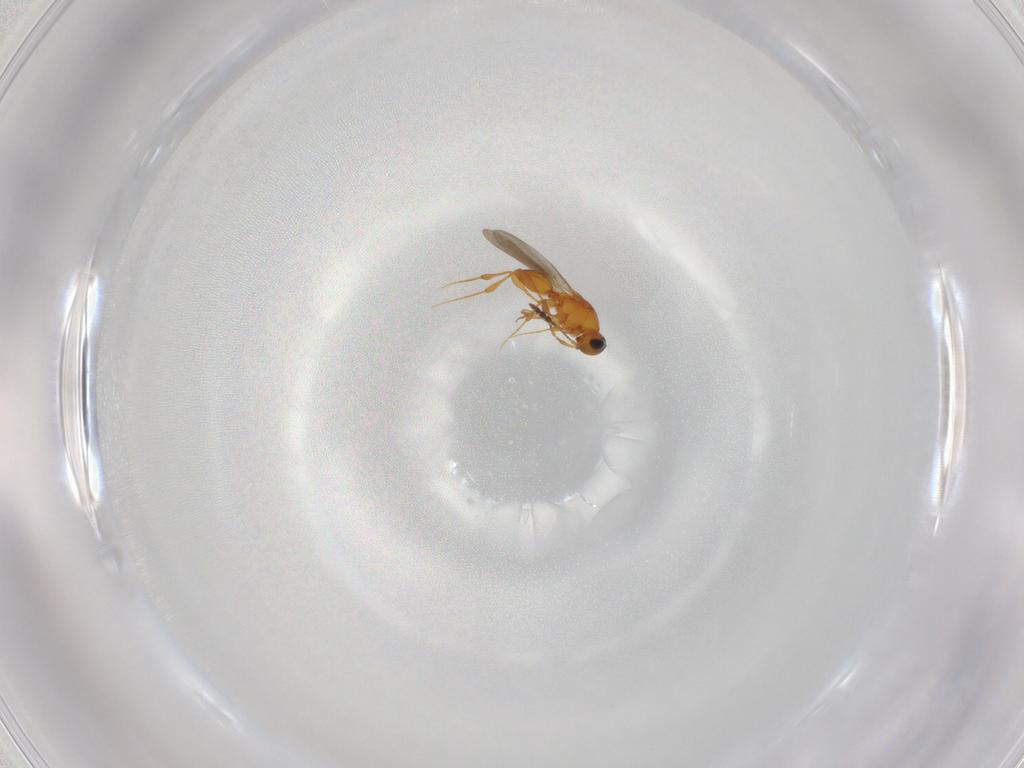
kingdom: Animalia
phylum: Arthropoda
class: Insecta
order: Hymenoptera
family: Platygastridae
